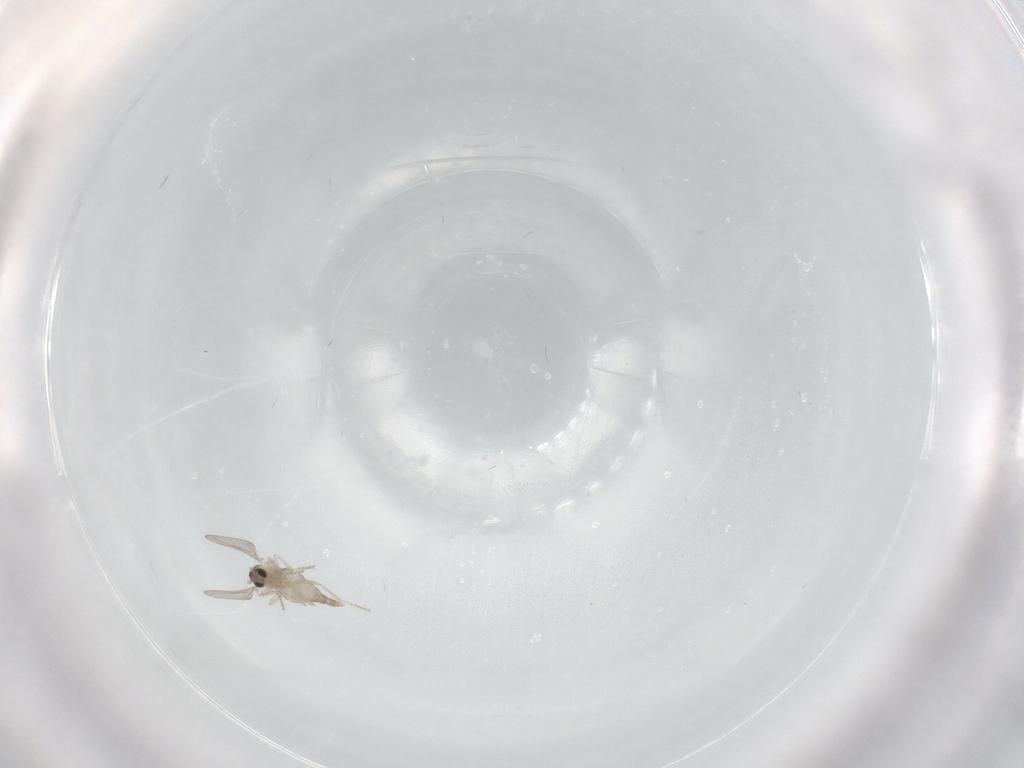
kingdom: Animalia
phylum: Arthropoda
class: Insecta
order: Diptera
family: Cecidomyiidae
